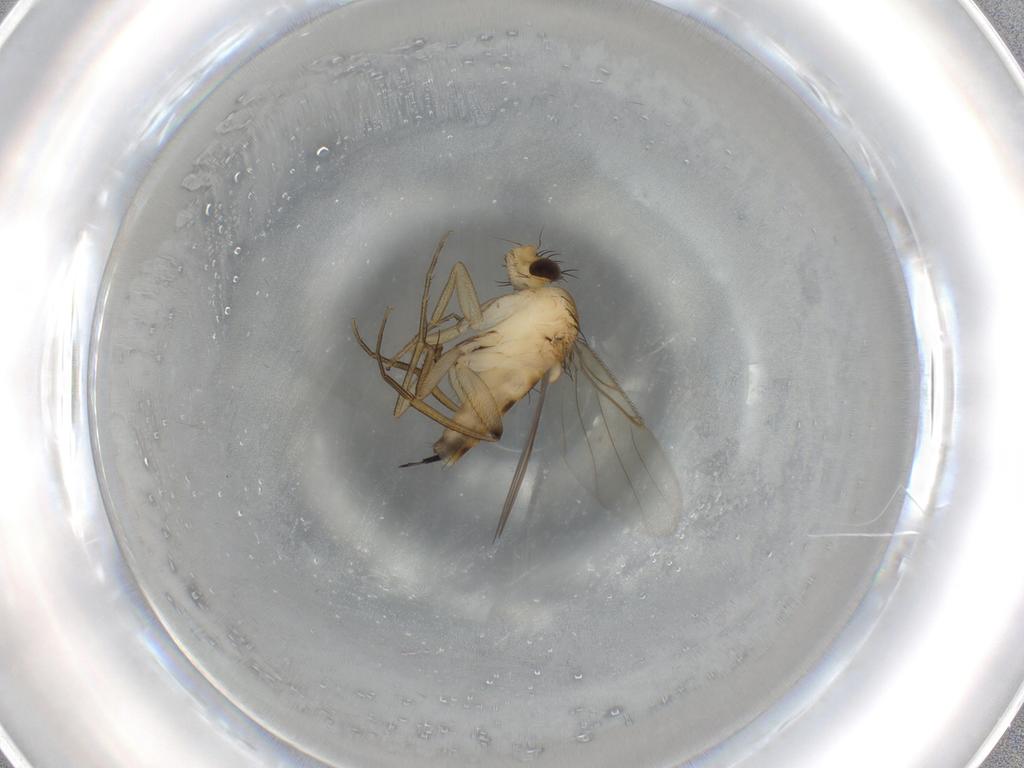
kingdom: Animalia
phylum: Arthropoda
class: Insecta
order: Diptera
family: Phoridae
